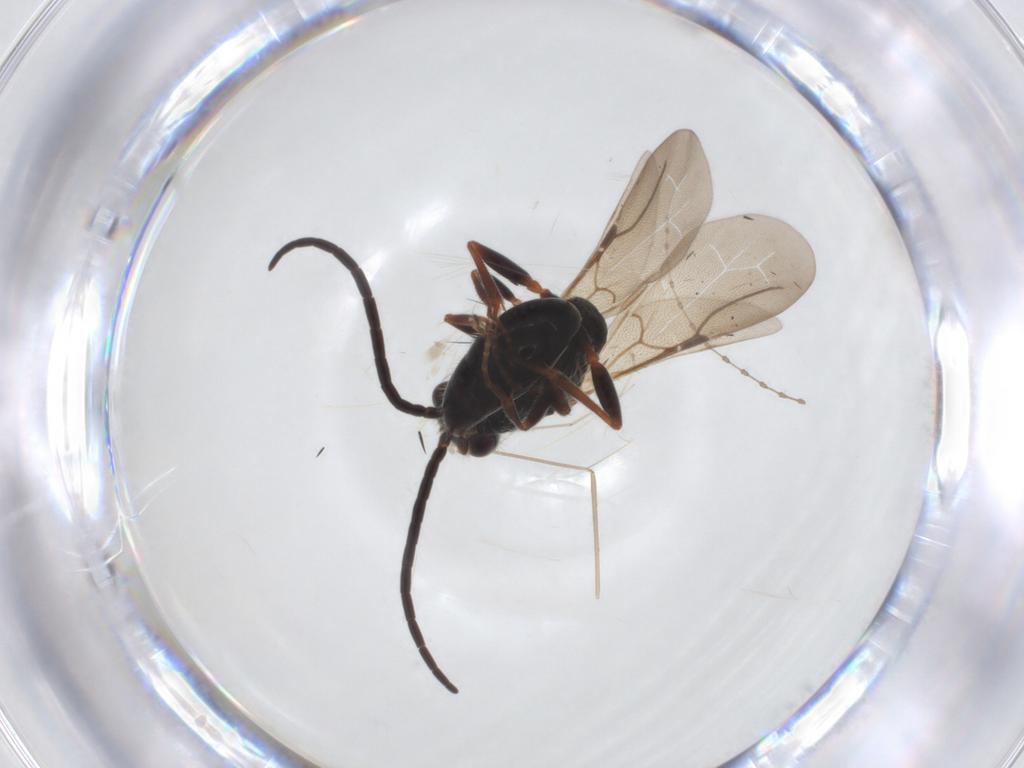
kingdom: Animalia
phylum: Arthropoda
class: Insecta
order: Hymenoptera
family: Bethylidae
